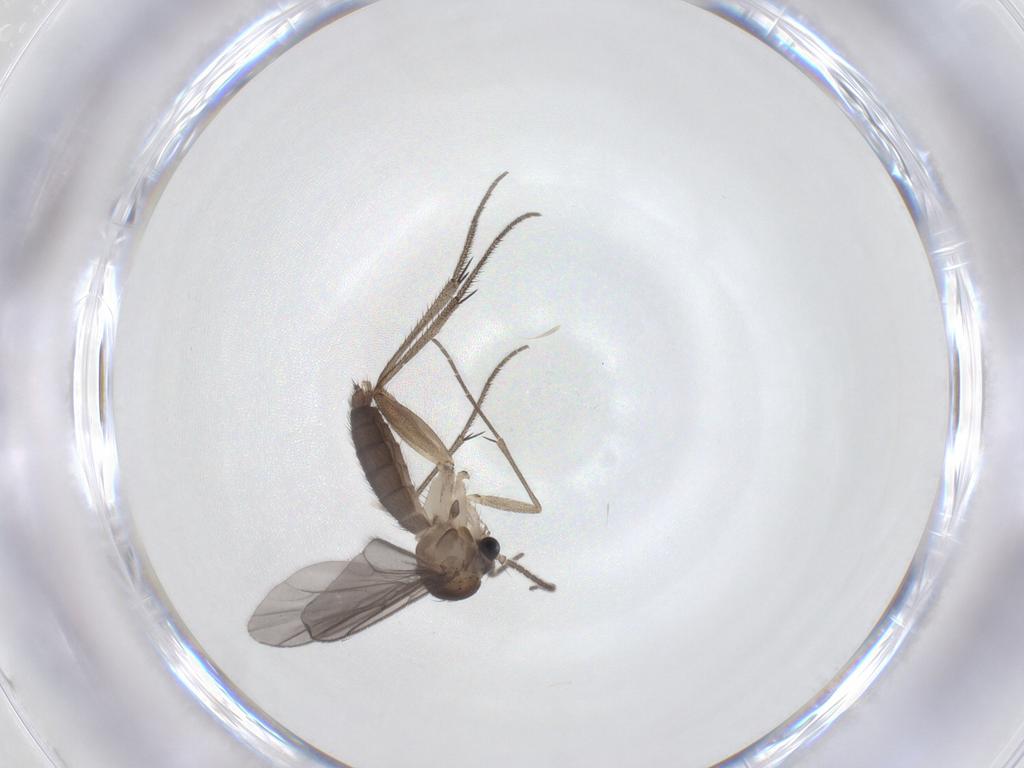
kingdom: Animalia
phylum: Arthropoda
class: Insecta
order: Diptera
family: Mycetophilidae
